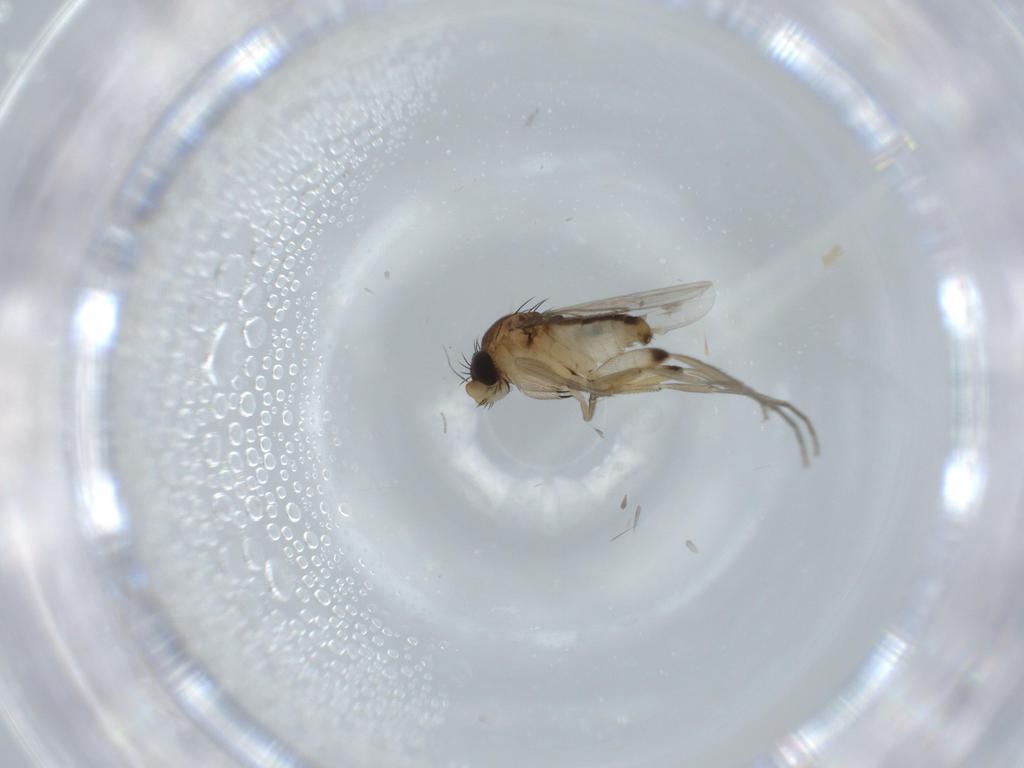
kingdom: Animalia
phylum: Arthropoda
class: Insecta
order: Diptera
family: Phoridae
